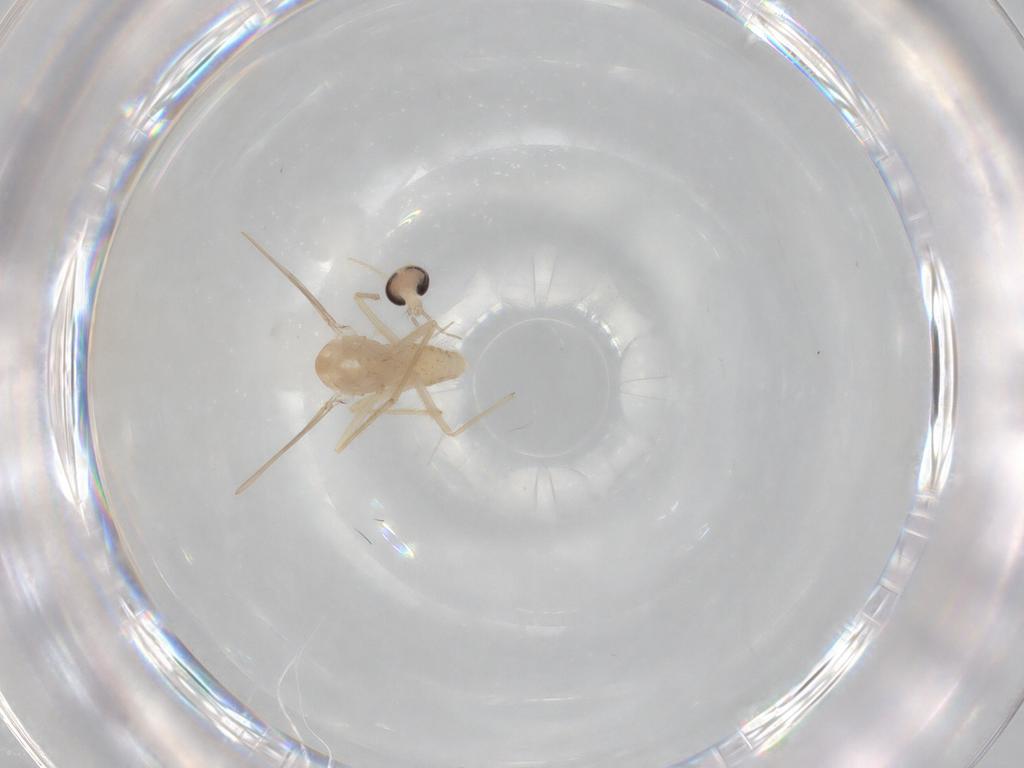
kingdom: Animalia
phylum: Arthropoda
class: Insecta
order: Diptera
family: Chironomidae
